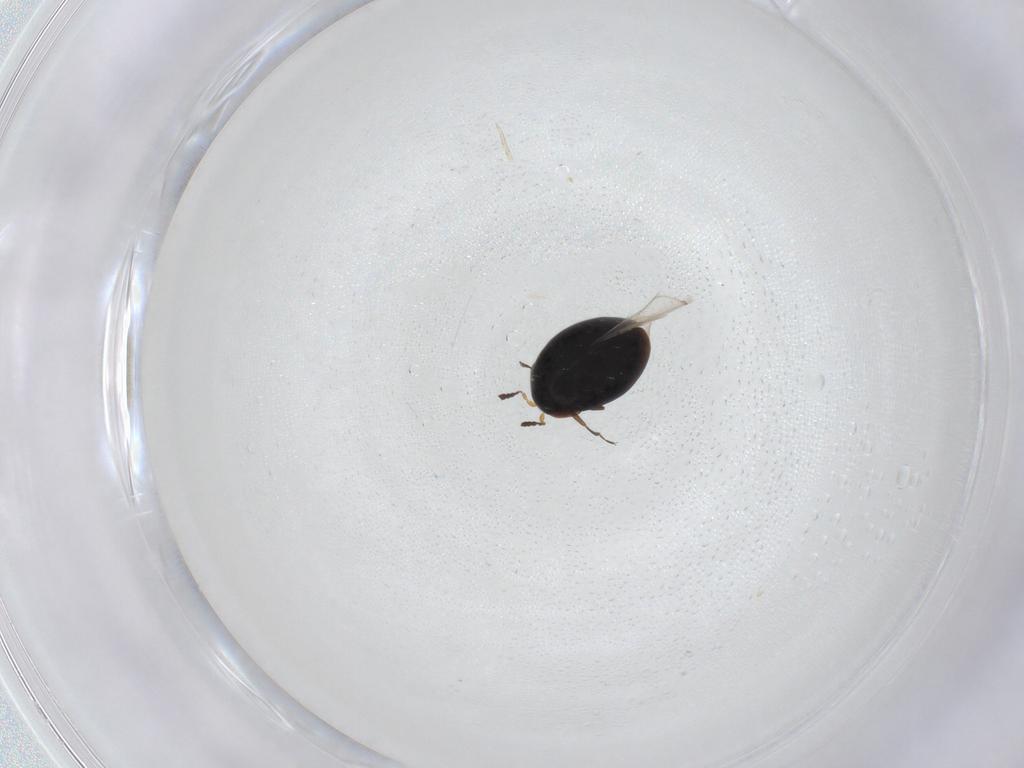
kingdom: Animalia
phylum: Arthropoda
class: Insecta
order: Coleoptera
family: Corylophidae
